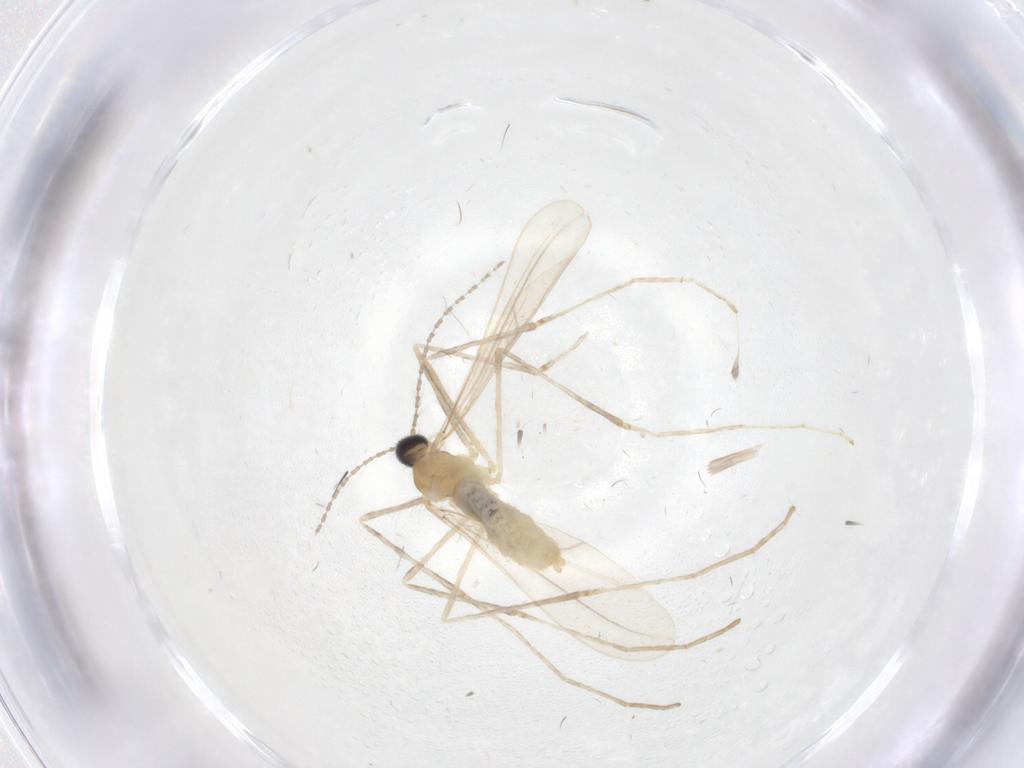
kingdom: Animalia
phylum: Arthropoda
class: Insecta
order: Diptera
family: Cecidomyiidae
